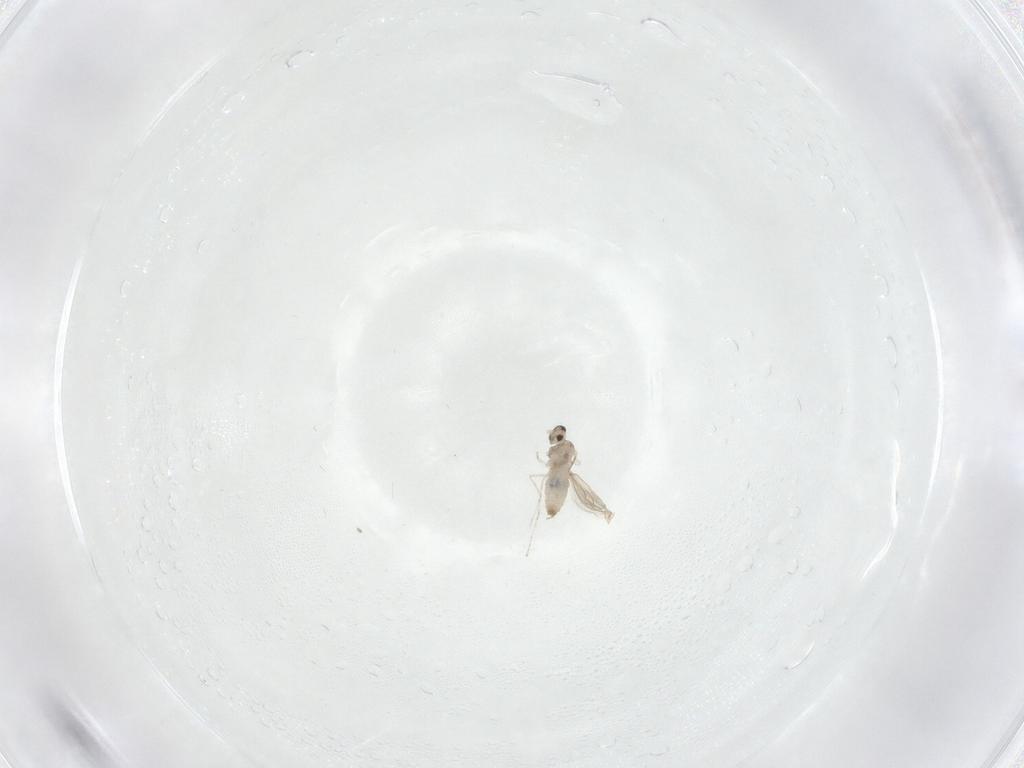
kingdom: Animalia
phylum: Arthropoda
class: Insecta
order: Diptera
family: Cecidomyiidae
